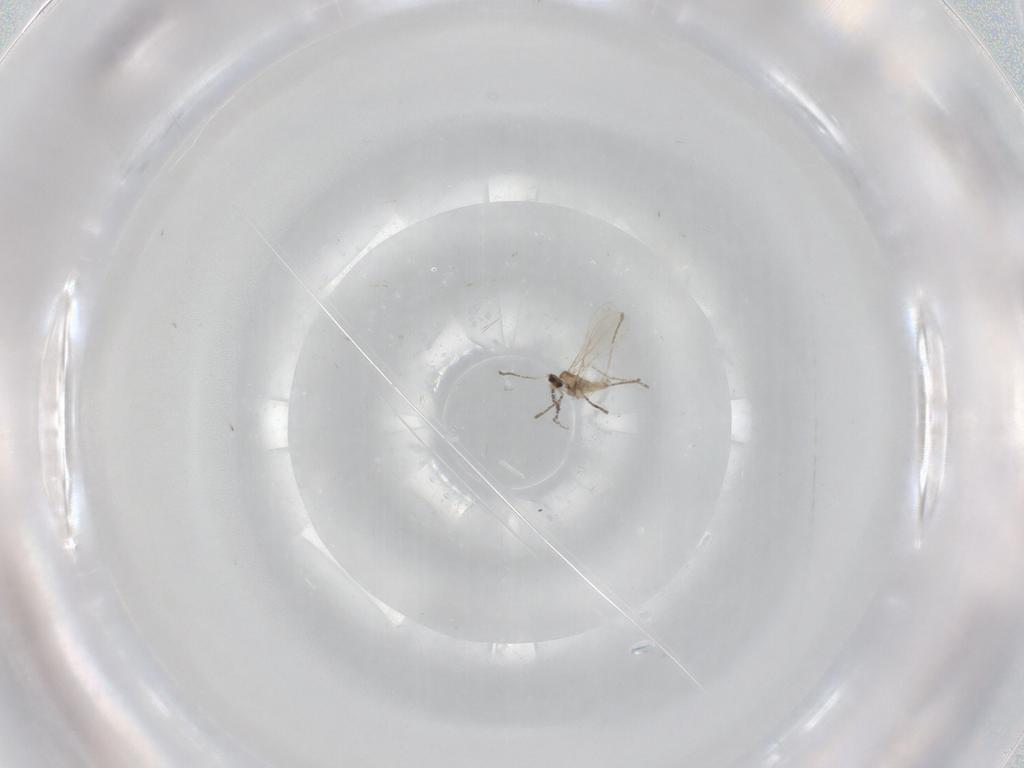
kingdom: Animalia
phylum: Arthropoda
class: Insecta
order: Diptera
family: Cecidomyiidae
